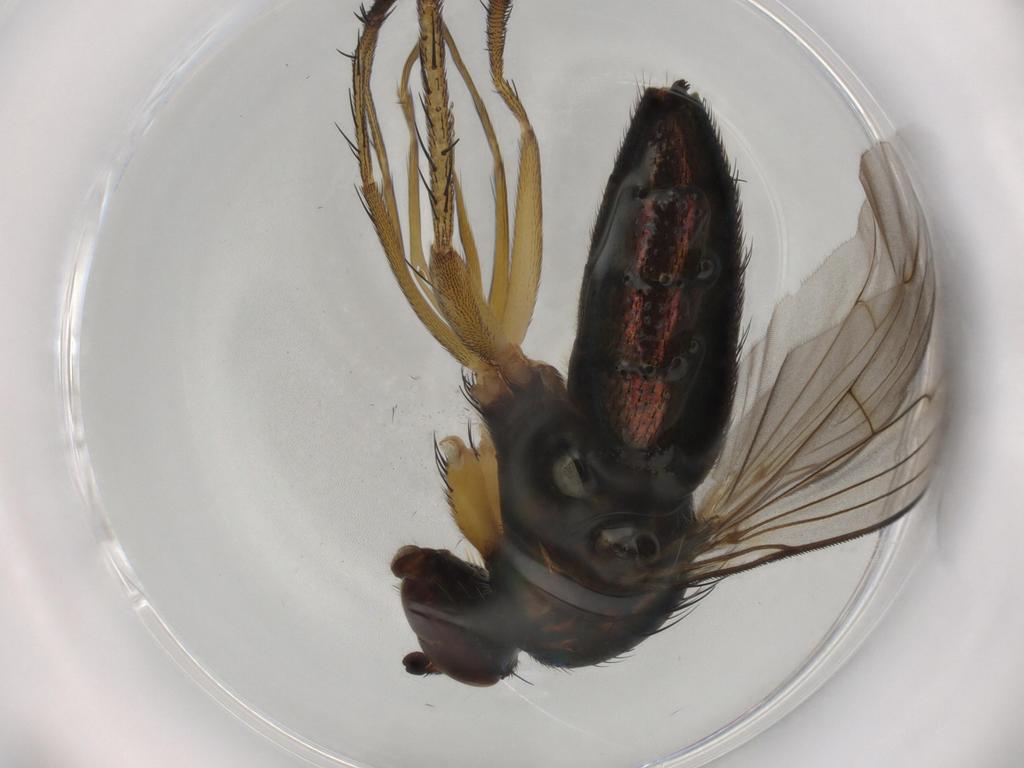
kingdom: Animalia
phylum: Arthropoda
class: Insecta
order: Diptera
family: Dolichopodidae
